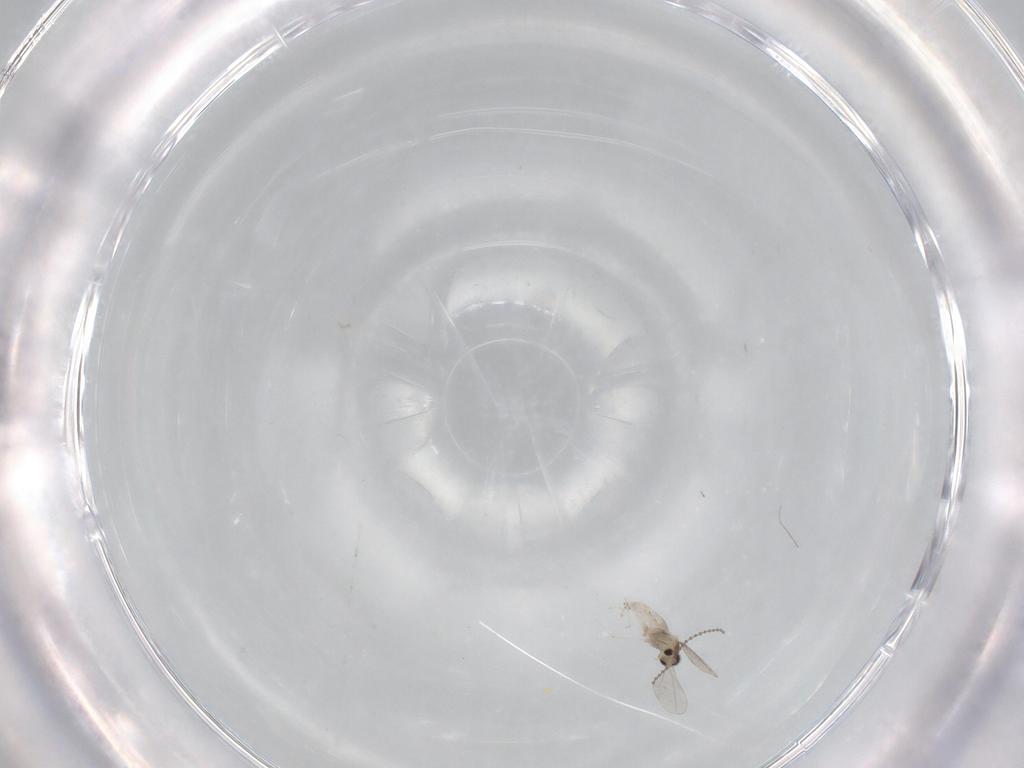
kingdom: Animalia
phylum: Arthropoda
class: Insecta
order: Diptera
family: Cecidomyiidae
